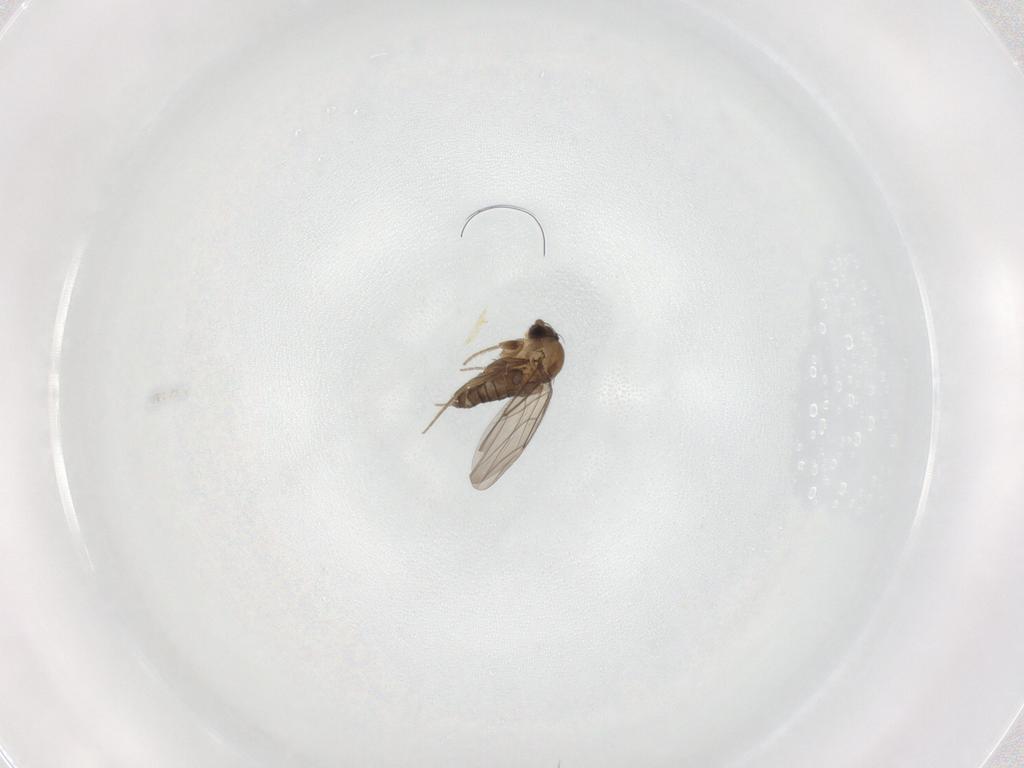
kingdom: Animalia
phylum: Arthropoda
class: Insecta
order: Diptera
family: Phoridae
